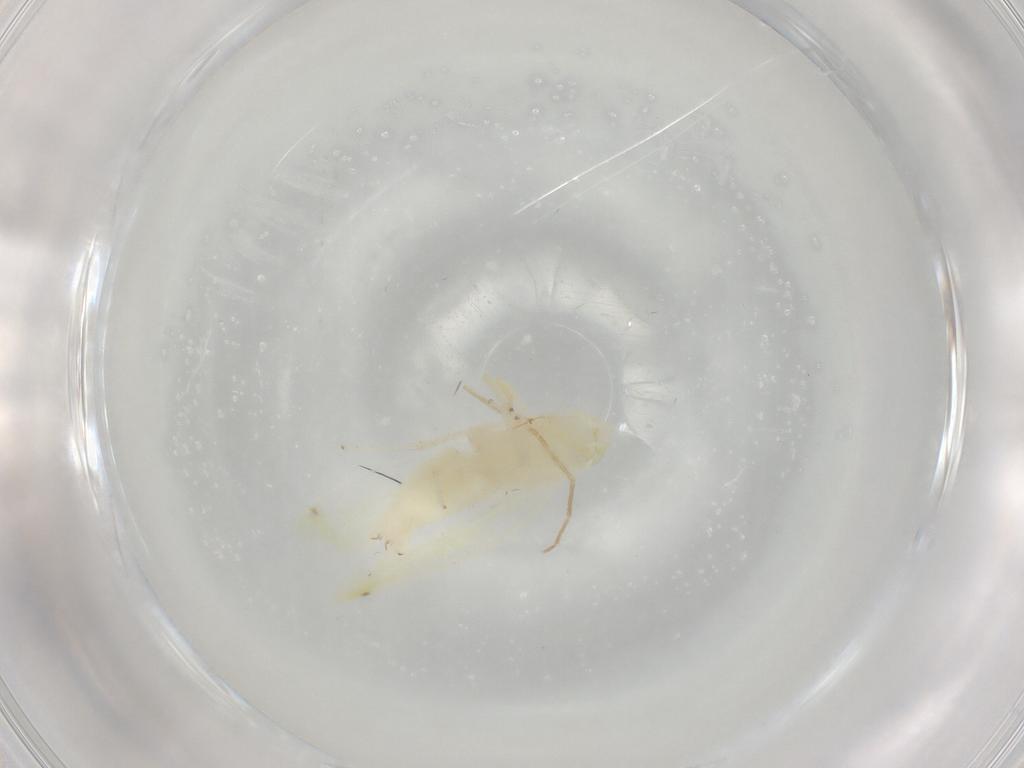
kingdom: Animalia
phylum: Arthropoda
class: Insecta
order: Hemiptera
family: Cicadellidae
